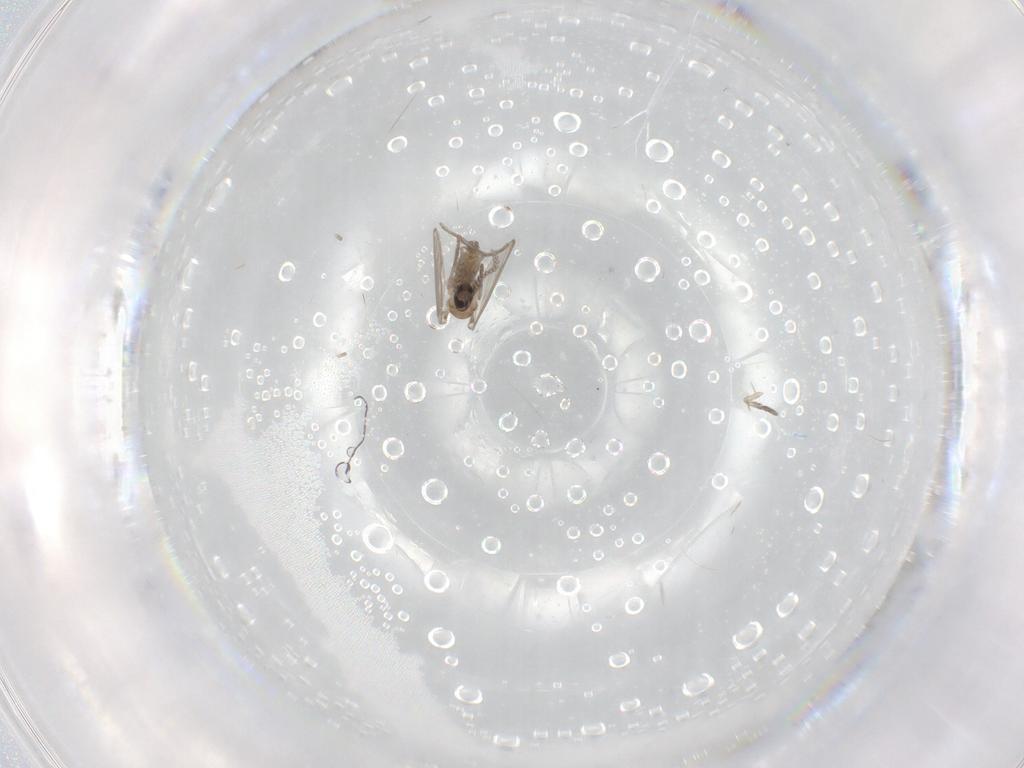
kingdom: Animalia
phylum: Arthropoda
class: Insecta
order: Diptera
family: Psychodidae
